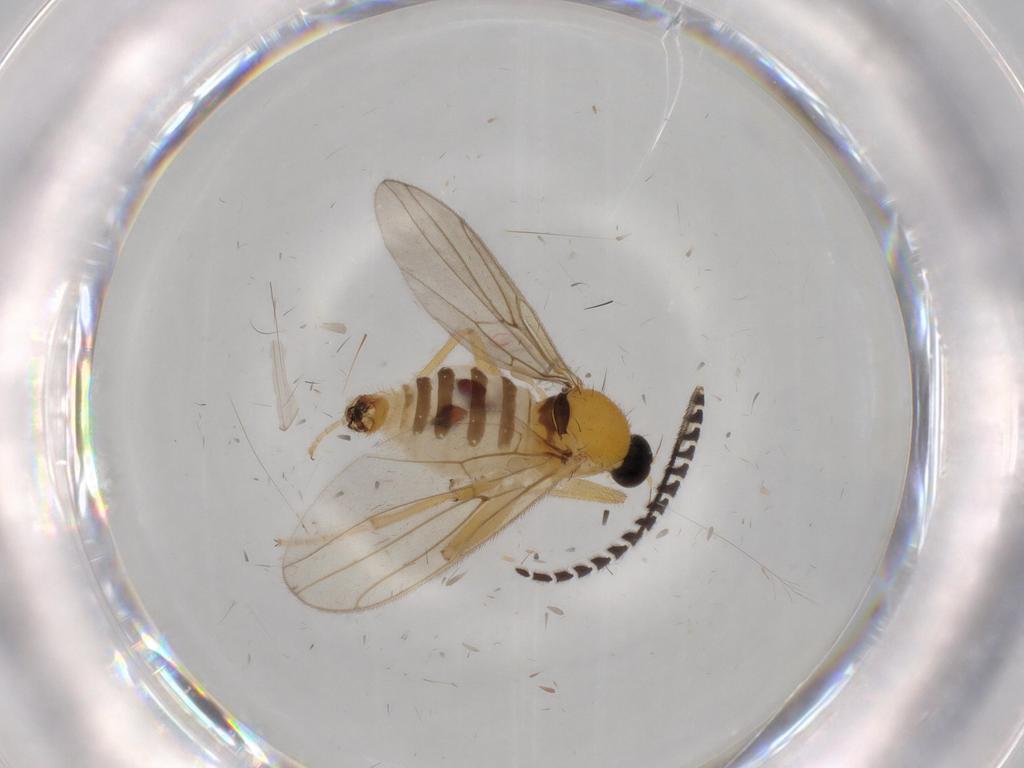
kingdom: Animalia
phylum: Arthropoda
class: Insecta
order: Diptera
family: Hybotidae
